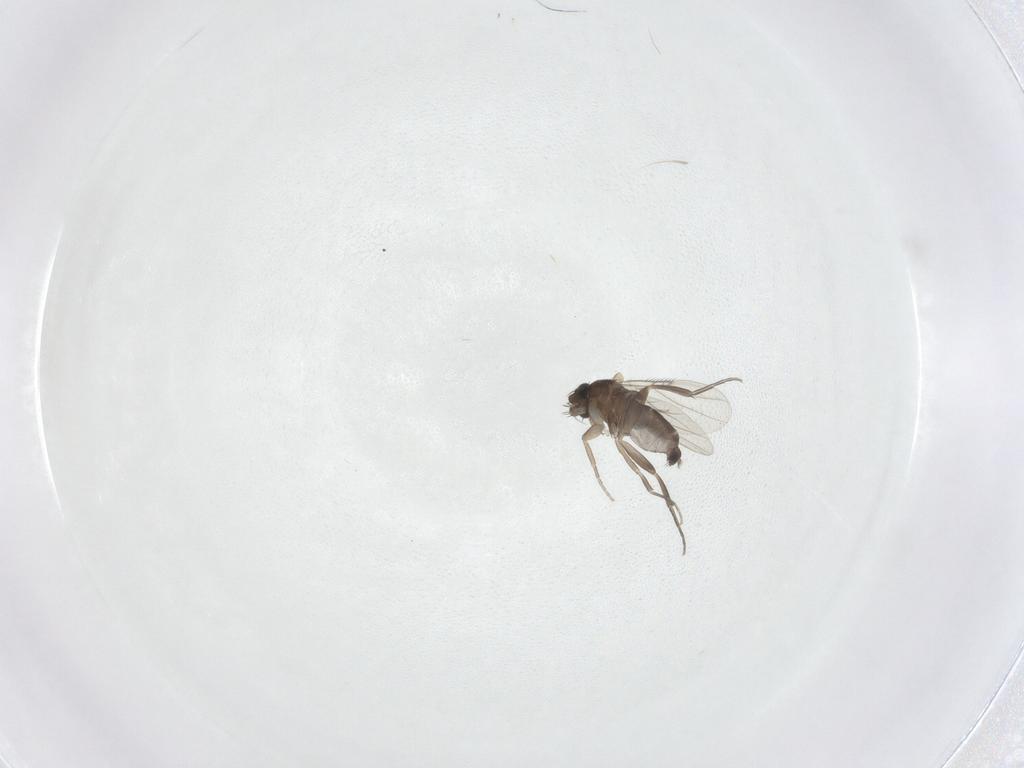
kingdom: Animalia
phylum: Arthropoda
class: Insecta
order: Diptera
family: Phoridae
